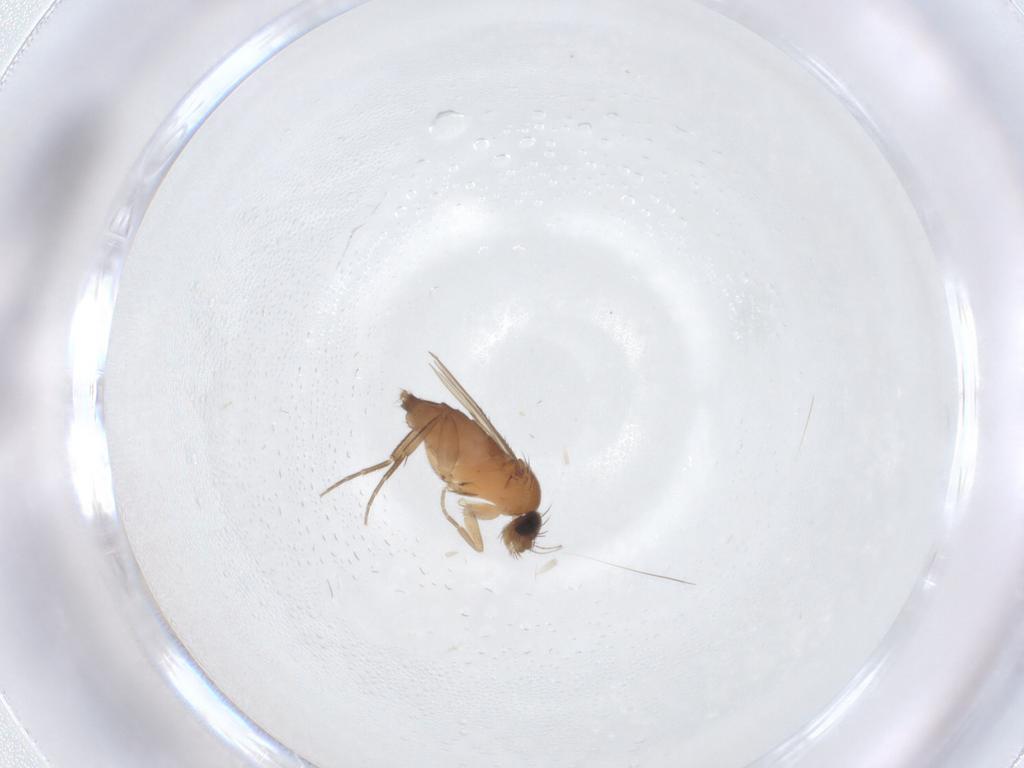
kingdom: Animalia
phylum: Arthropoda
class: Insecta
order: Diptera
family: Phoridae
